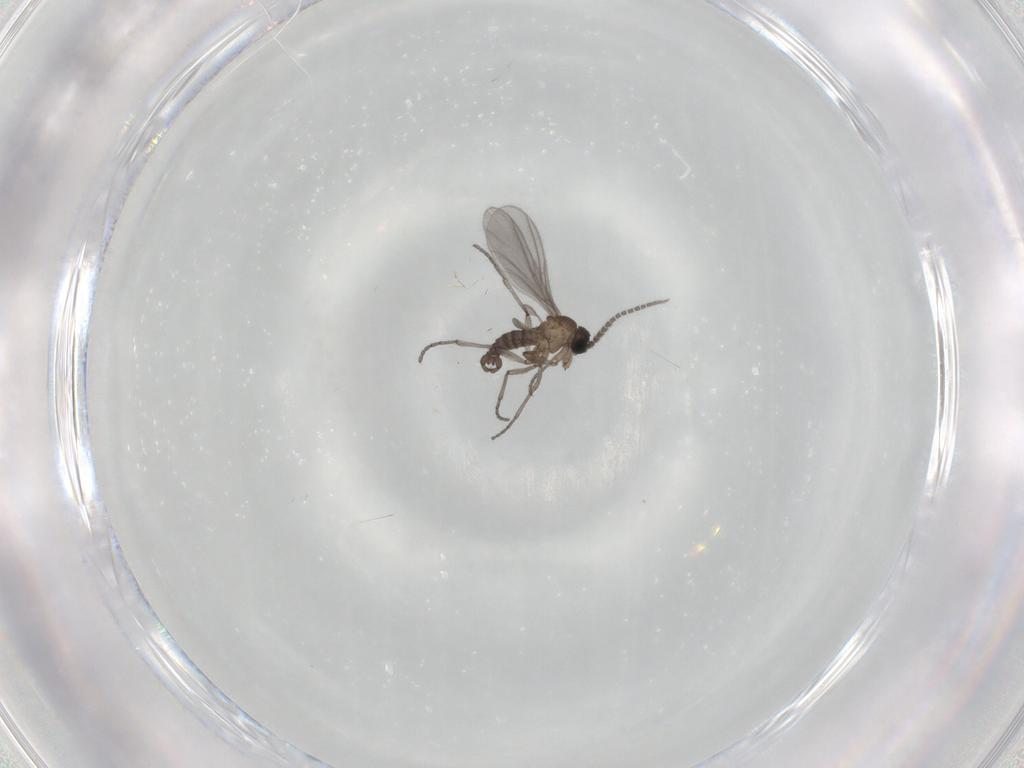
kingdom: Animalia
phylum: Arthropoda
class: Insecta
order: Diptera
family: Sciaridae
